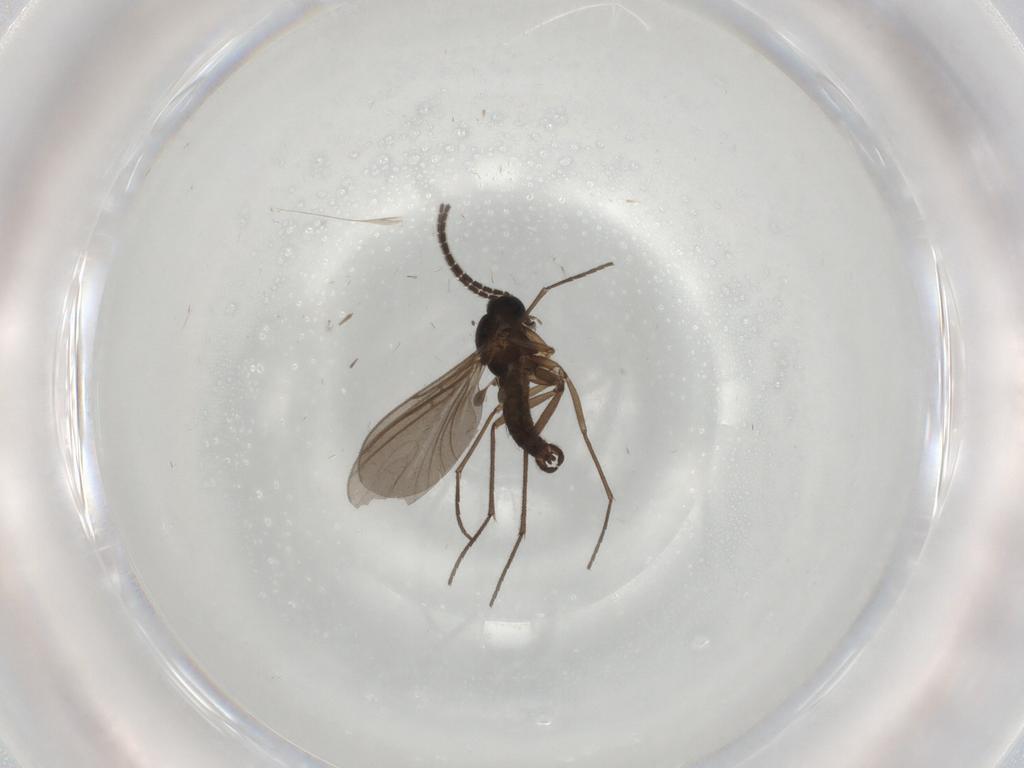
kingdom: Animalia
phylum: Arthropoda
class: Insecta
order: Diptera
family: Sciaridae
